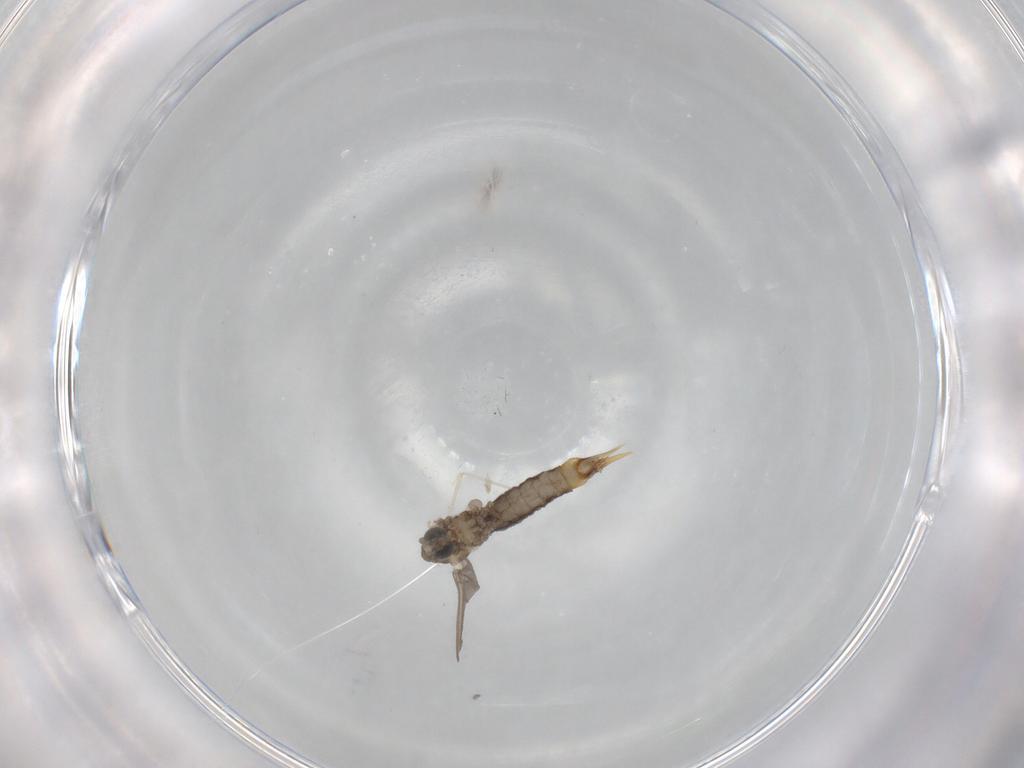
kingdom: Animalia
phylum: Arthropoda
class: Insecta
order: Diptera
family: Limoniidae
